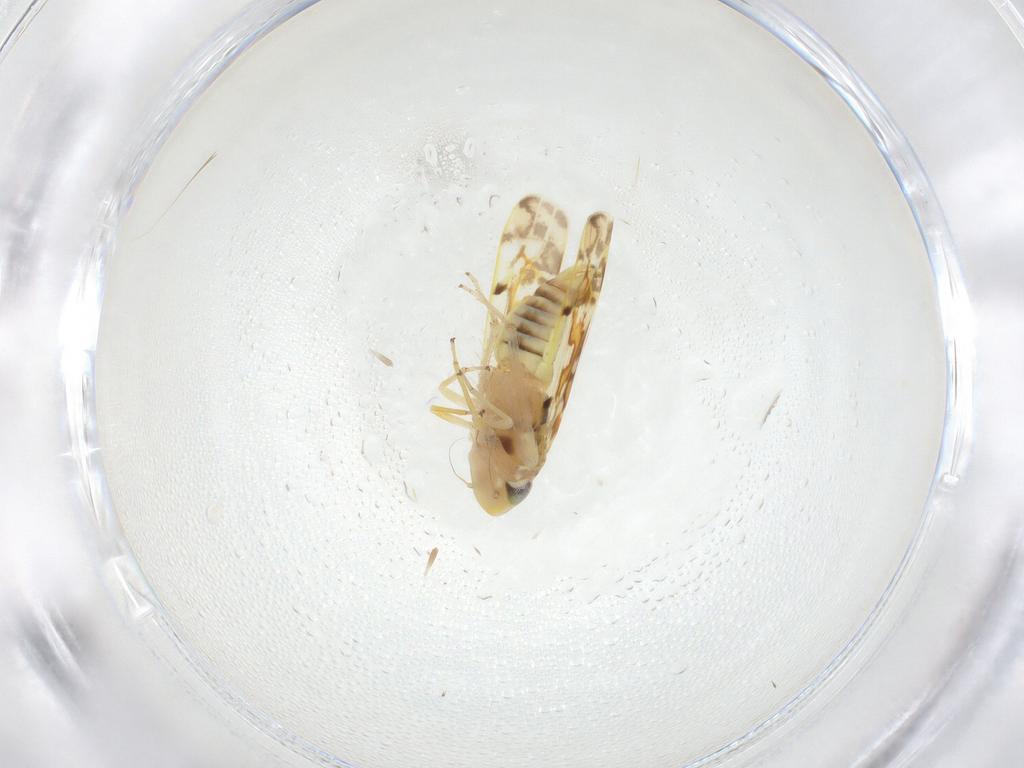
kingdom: Animalia
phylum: Arthropoda
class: Insecta
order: Hemiptera
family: Cicadellidae
